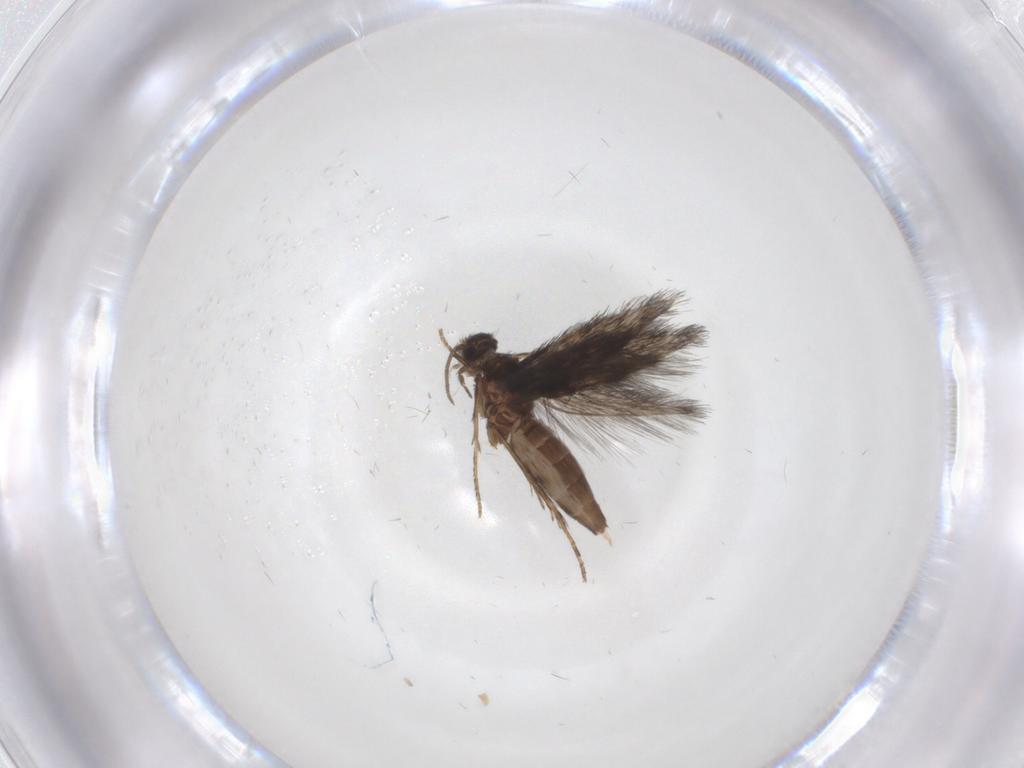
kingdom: Animalia
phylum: Arthropoda
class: Insecta
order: Trichoptera
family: Hydroptilidae
